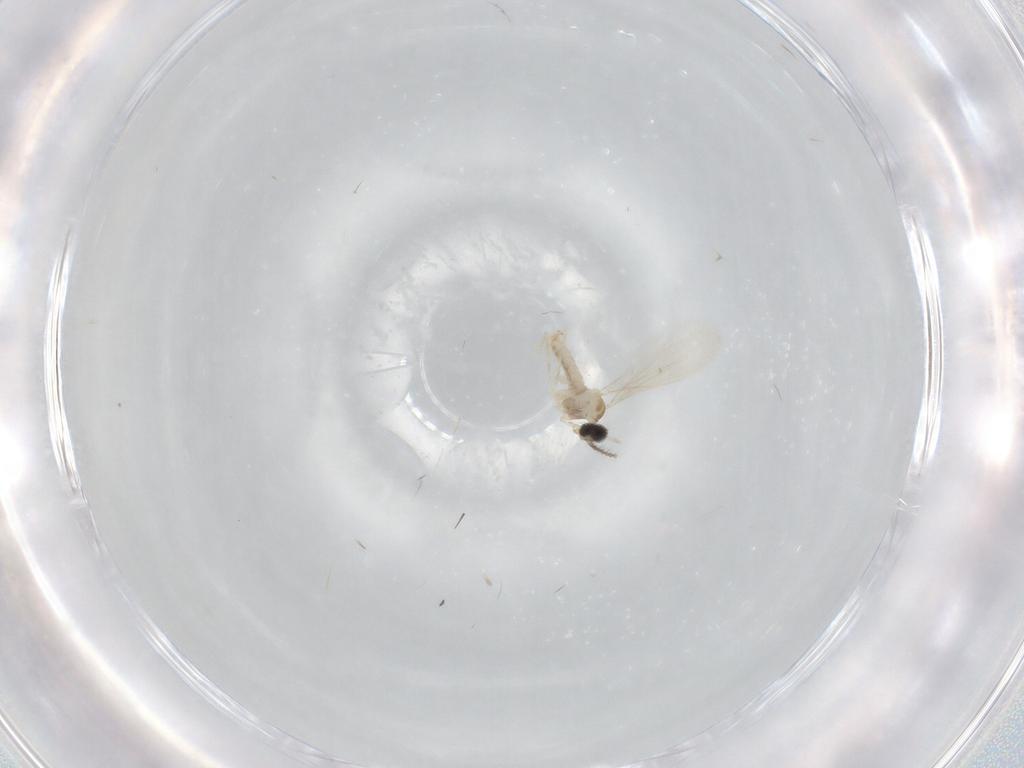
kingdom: Animalia
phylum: Arthropoda
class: Insecta
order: Diptera
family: Cecidomyiidae
